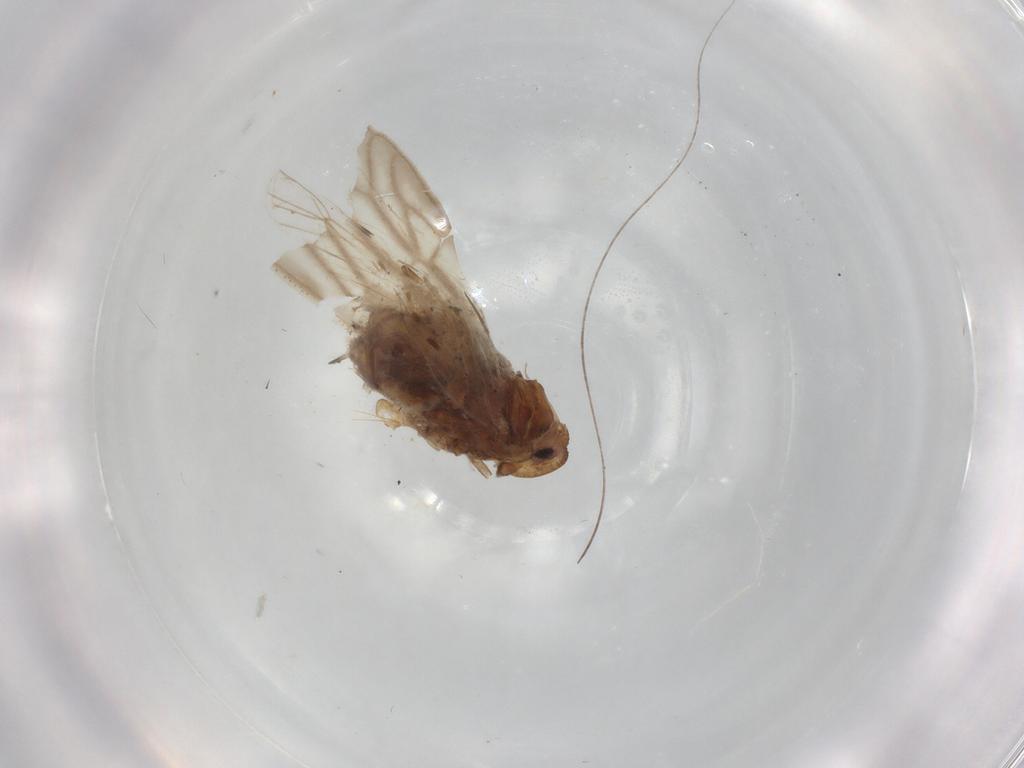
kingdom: Animalia
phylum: Arthropoda
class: Insecta
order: Hemiptera
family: Meenoplidae
